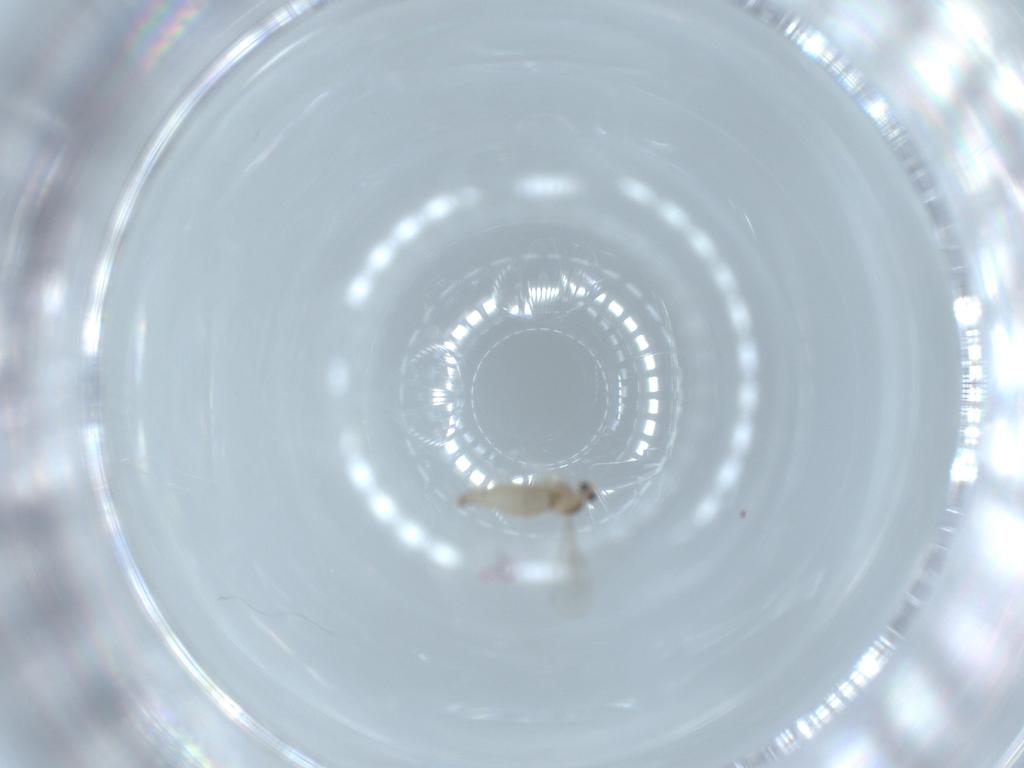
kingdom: Animalia
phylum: Arthropoda
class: Insecta
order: Diptera
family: Cecidomyiidae
